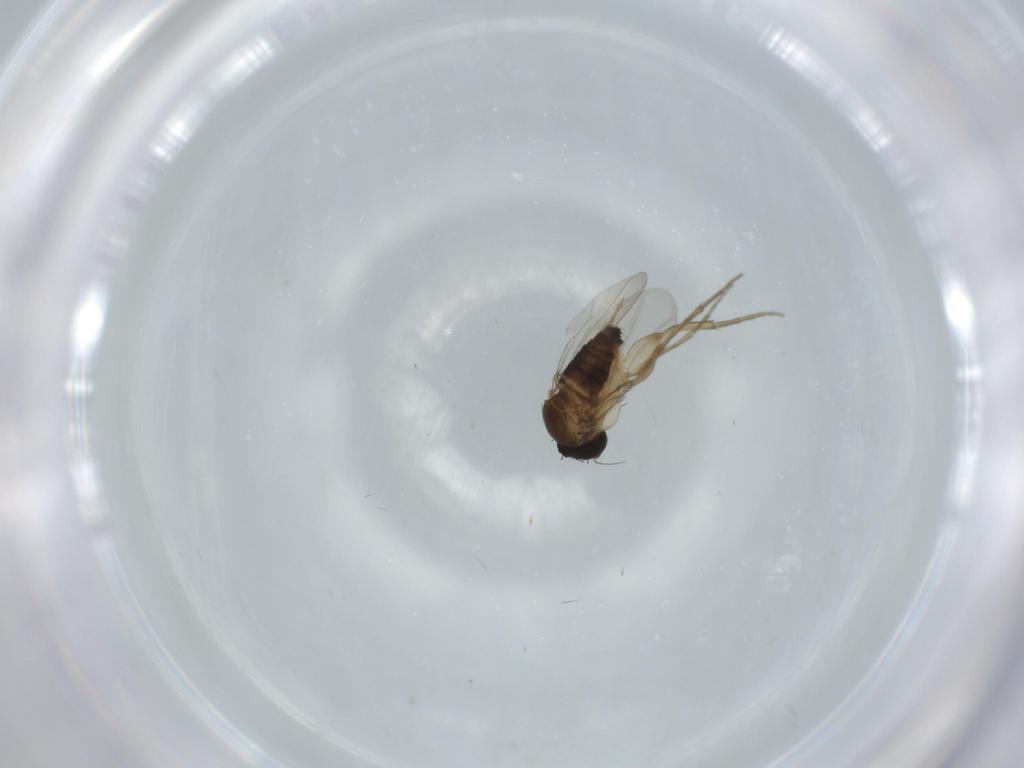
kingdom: Animalia
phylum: Arthropoda
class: Insecta
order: Diptera
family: Phoridae
